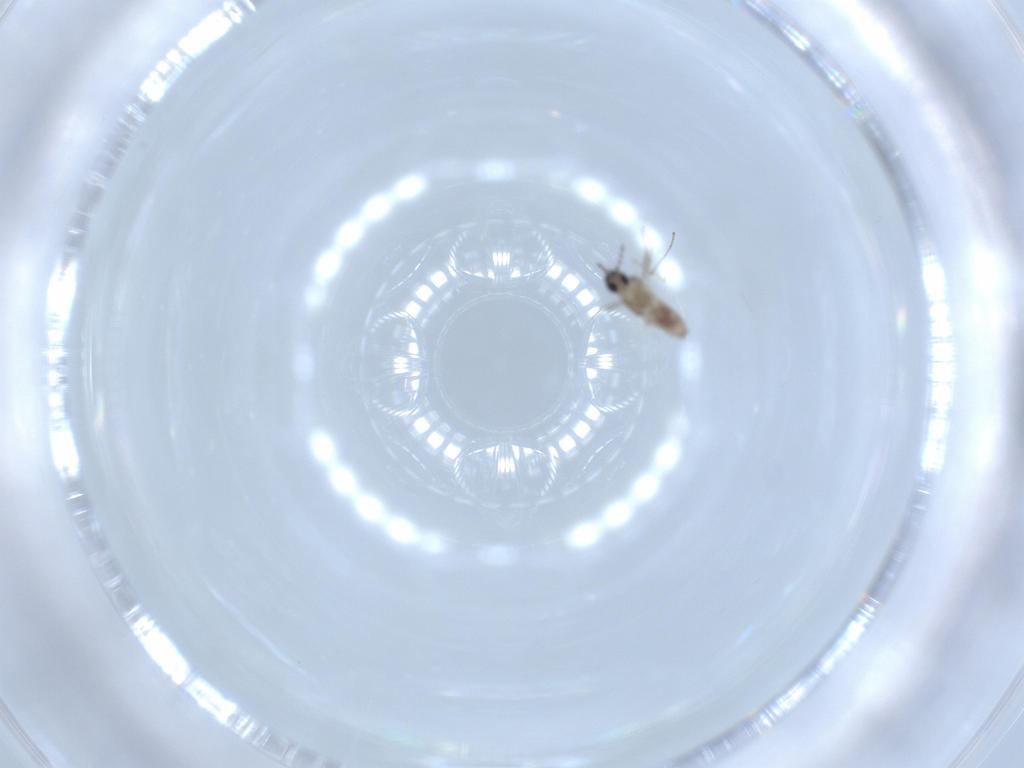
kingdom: Animalia
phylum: Arthropoda
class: Insecta
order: Diptera
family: Cecidomyiidae
